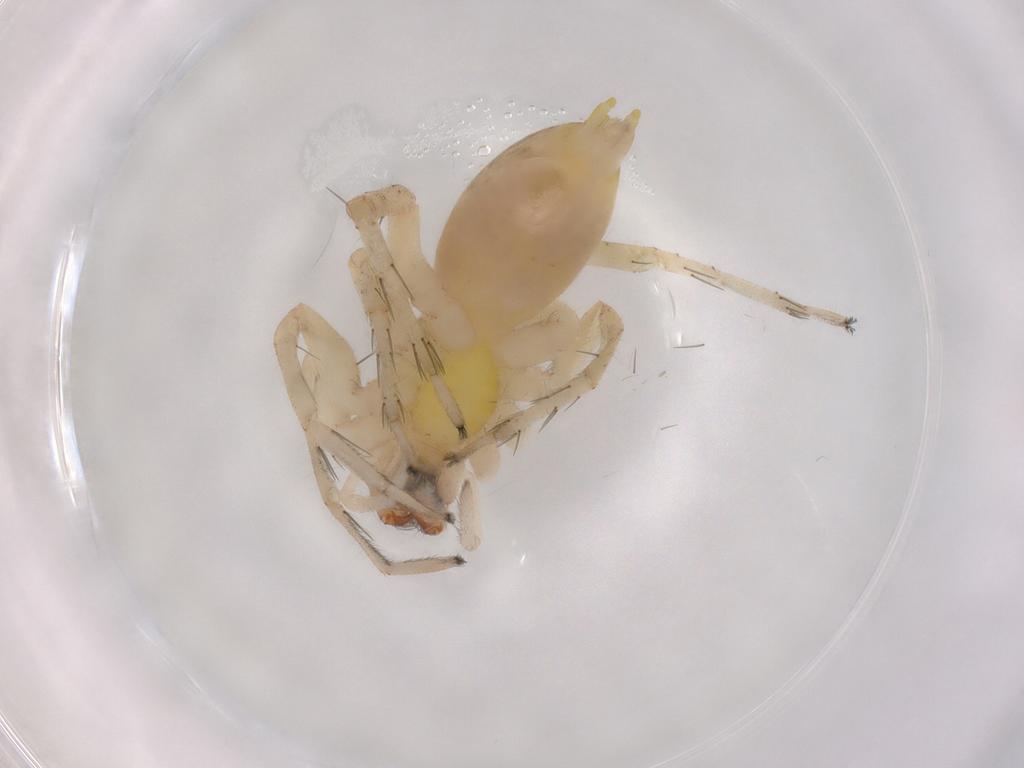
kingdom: Animalia
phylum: Arthropoda
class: Arachnida
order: Araneae
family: Anyphaenidae
